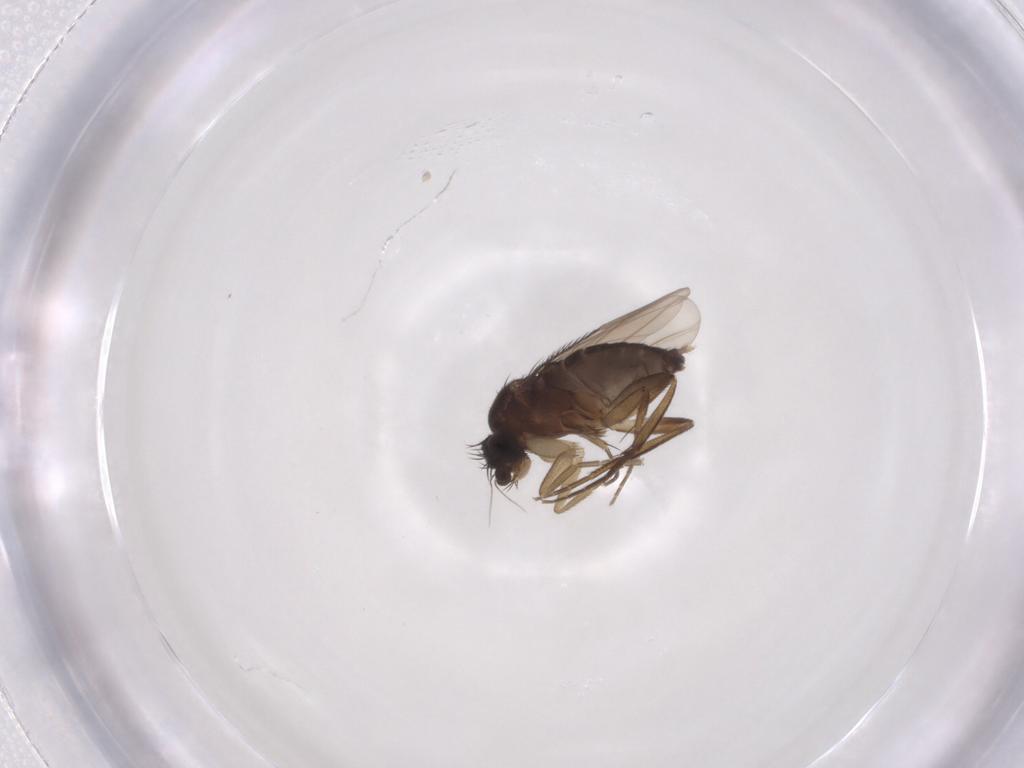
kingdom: Animalia
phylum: Arthropoda
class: Insecta
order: Diptera
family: Phoridae
